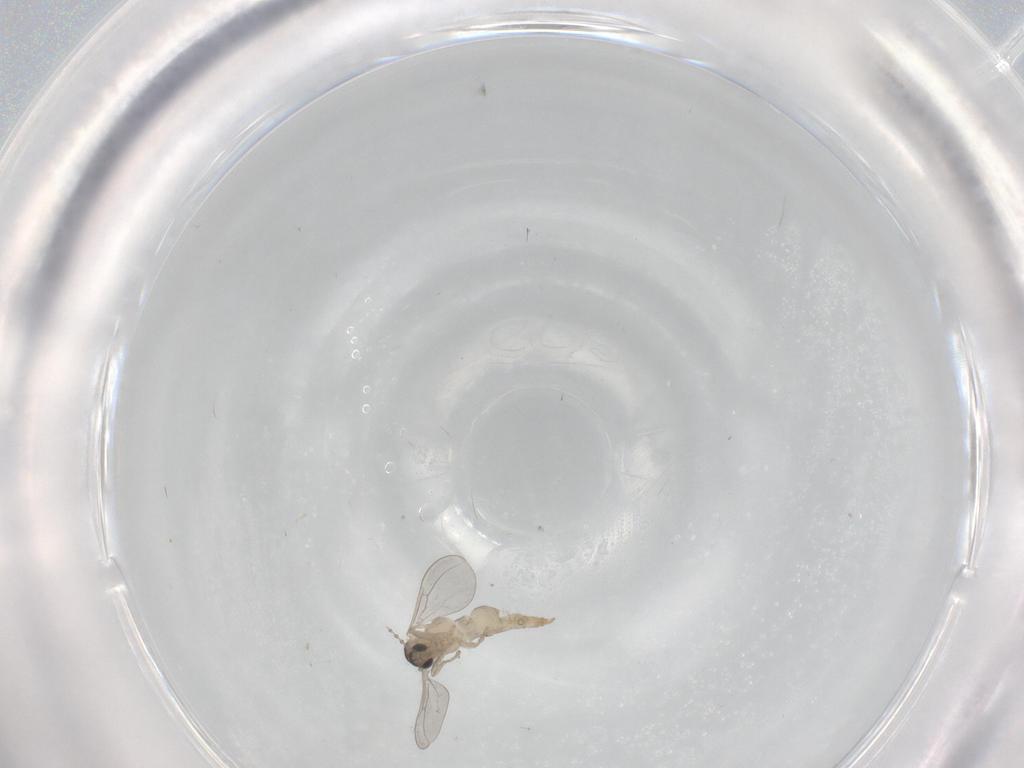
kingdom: Animalia
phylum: Arthropoda
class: Insecta
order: Diptera
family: Cecidomyiidae
